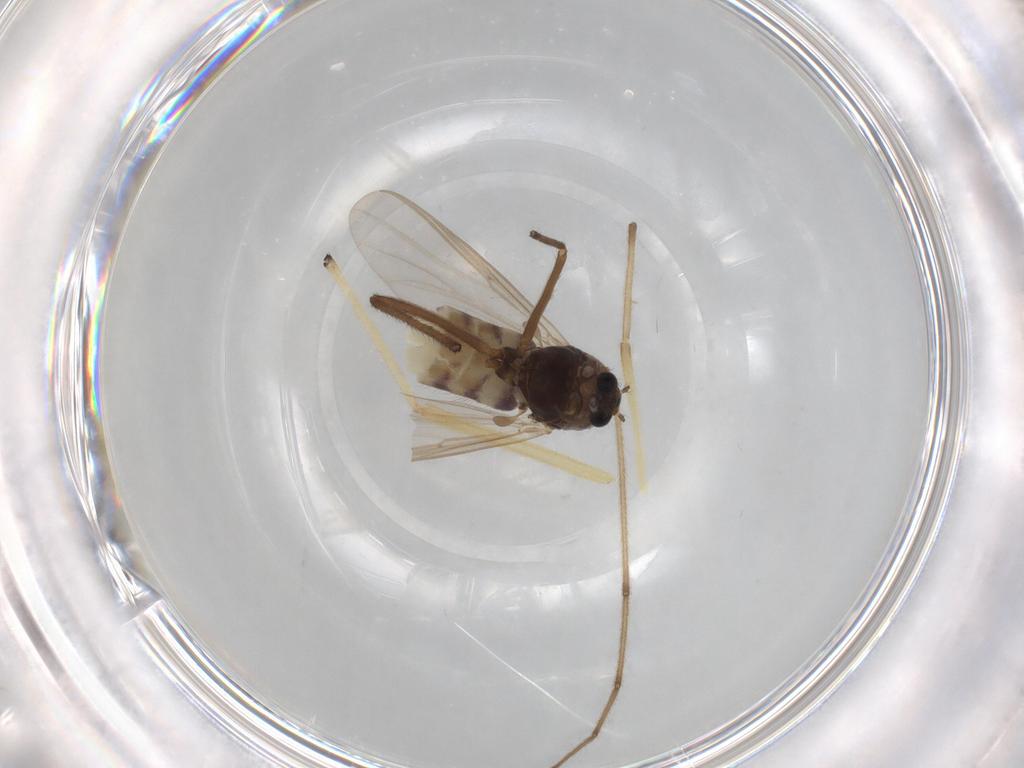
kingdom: Animalia
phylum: Arthropoda
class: Insecta
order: Diptera
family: Chironomidae
